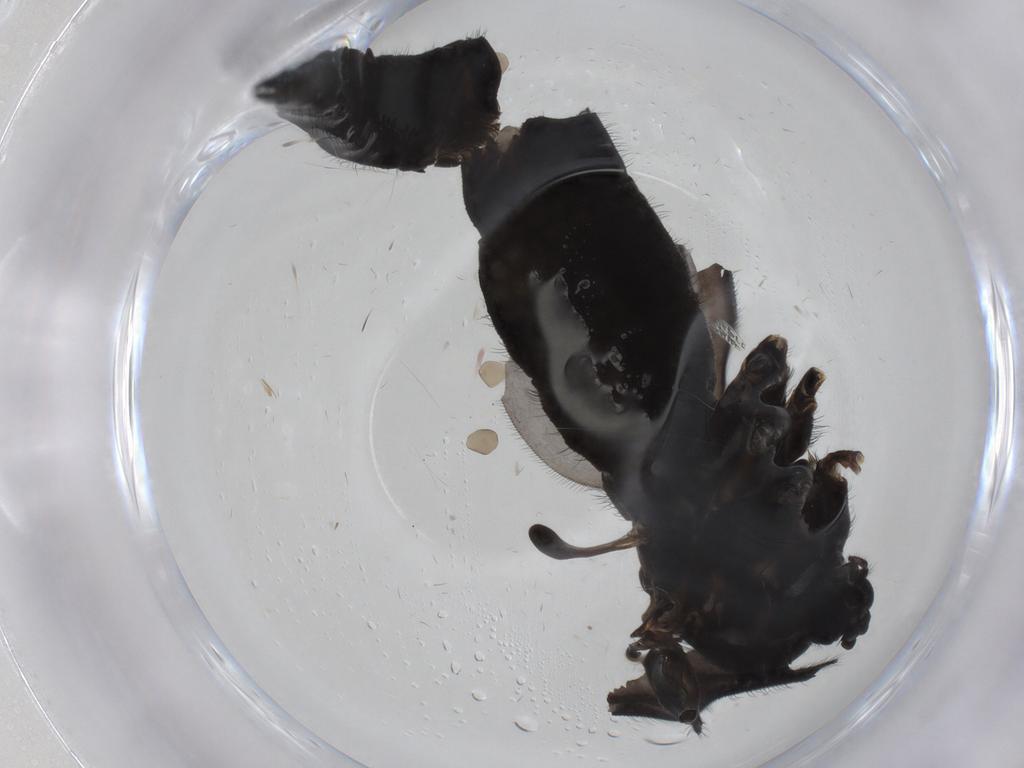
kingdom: Animalia
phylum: Arthropoda
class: Insecta
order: Diptera
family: Sciaridae
